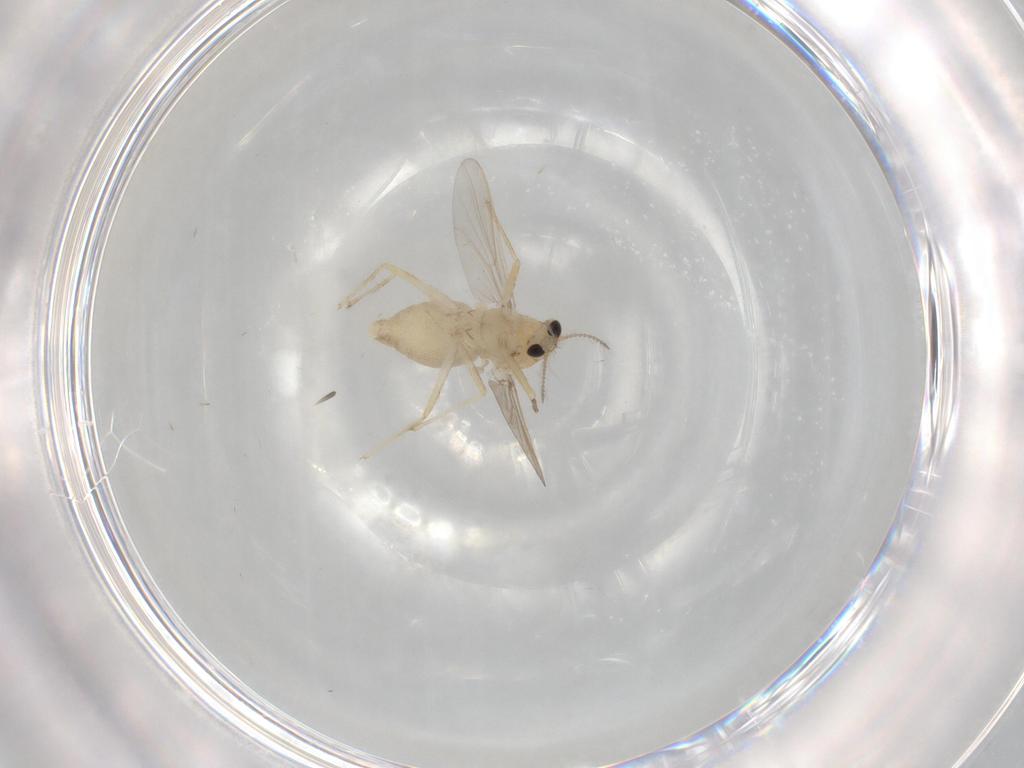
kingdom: Animalia
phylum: Arthropoda
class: Insecta
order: Diptera
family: Chironomidae
